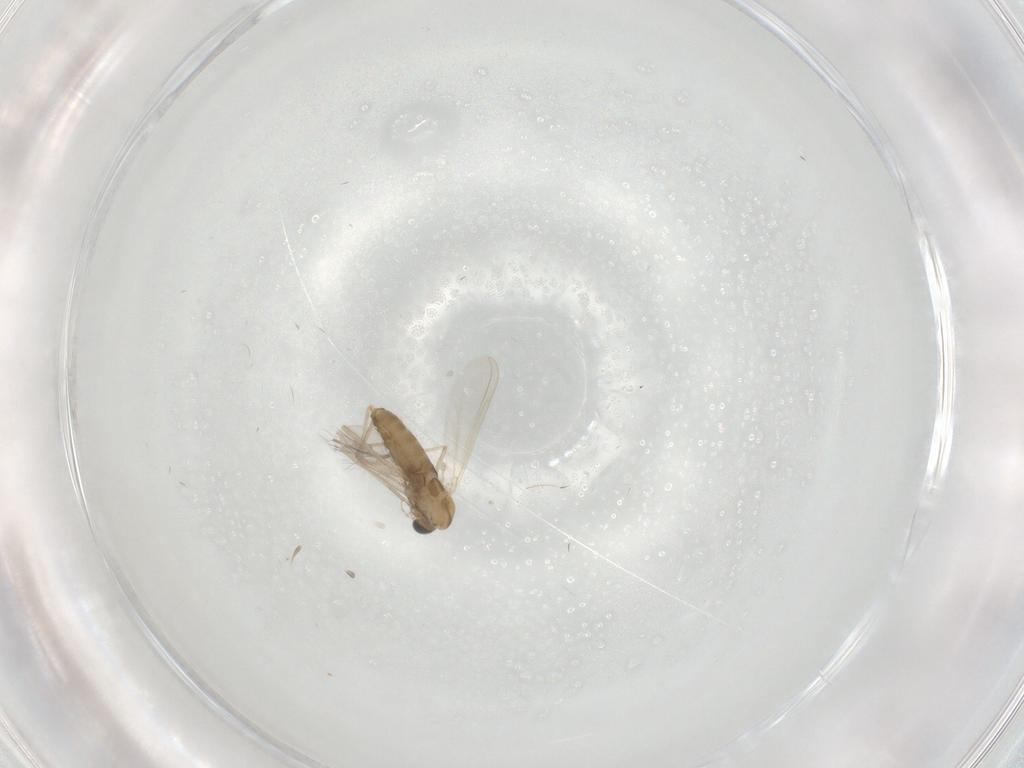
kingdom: Animalia
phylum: Arthropoda
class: Insecta
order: Diptera
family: Chironomidae
